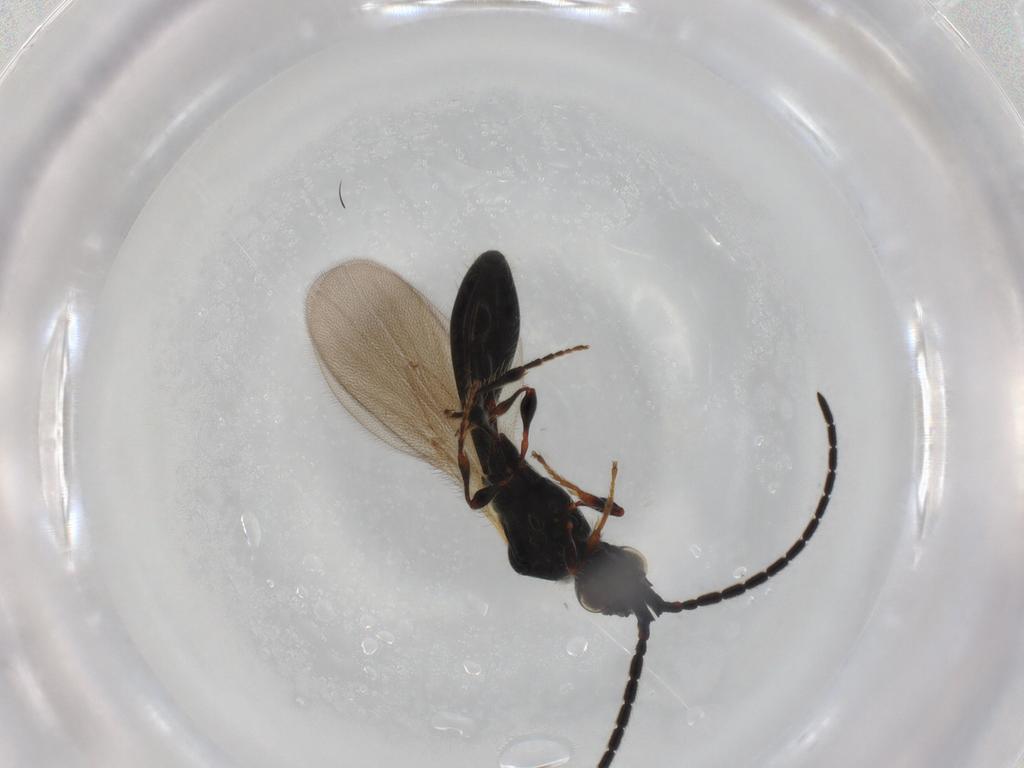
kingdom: Animalia
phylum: Arthropoda
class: Insecta
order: Hymenoptera
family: Diapriidae
